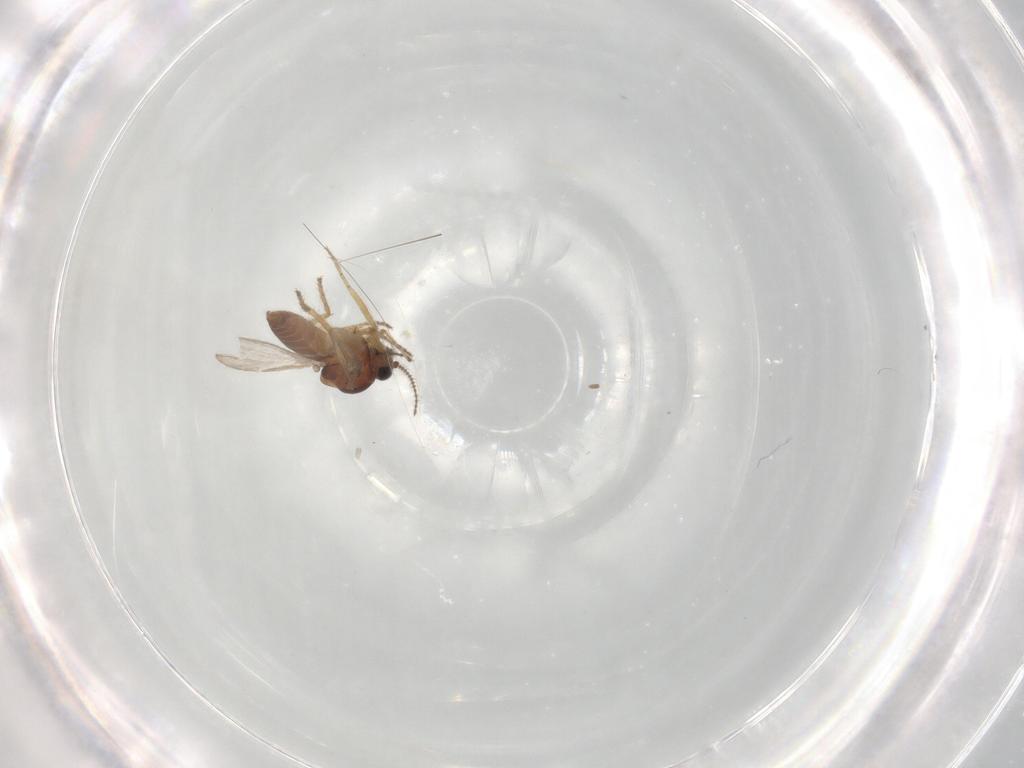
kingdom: Animalia
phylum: Arthropoda
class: Insecta
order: Diptera
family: Ceratopogonidae
